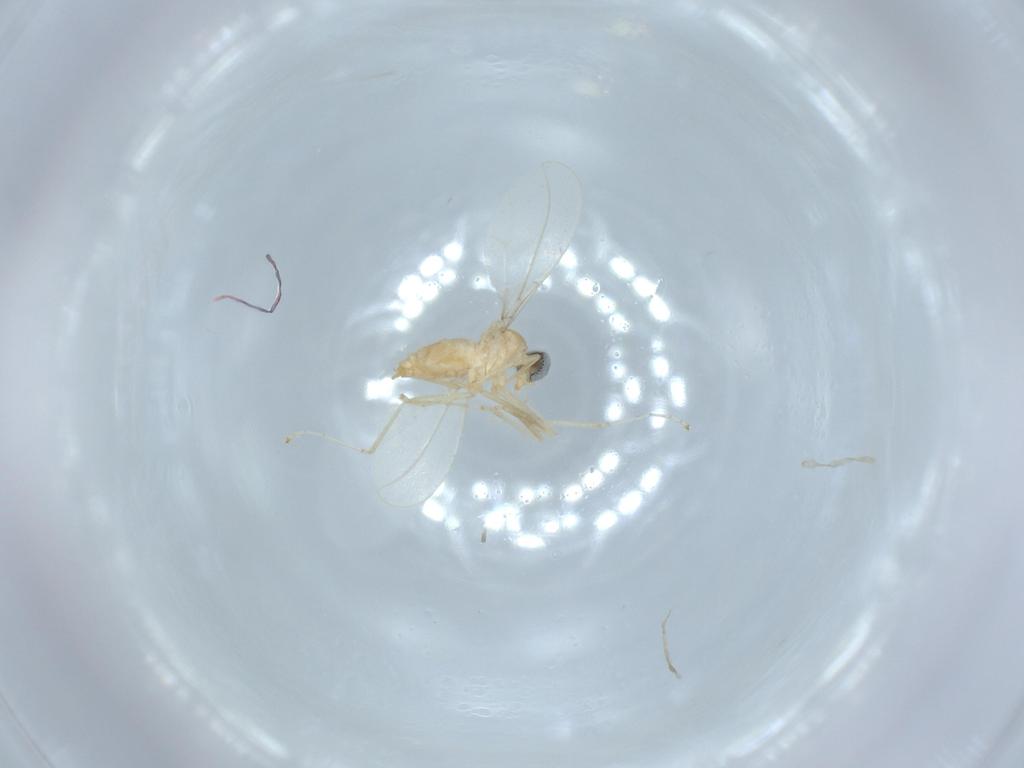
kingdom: Animalia
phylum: Arthropoda
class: Insecta
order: Diptera
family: Cecidomyiidae
